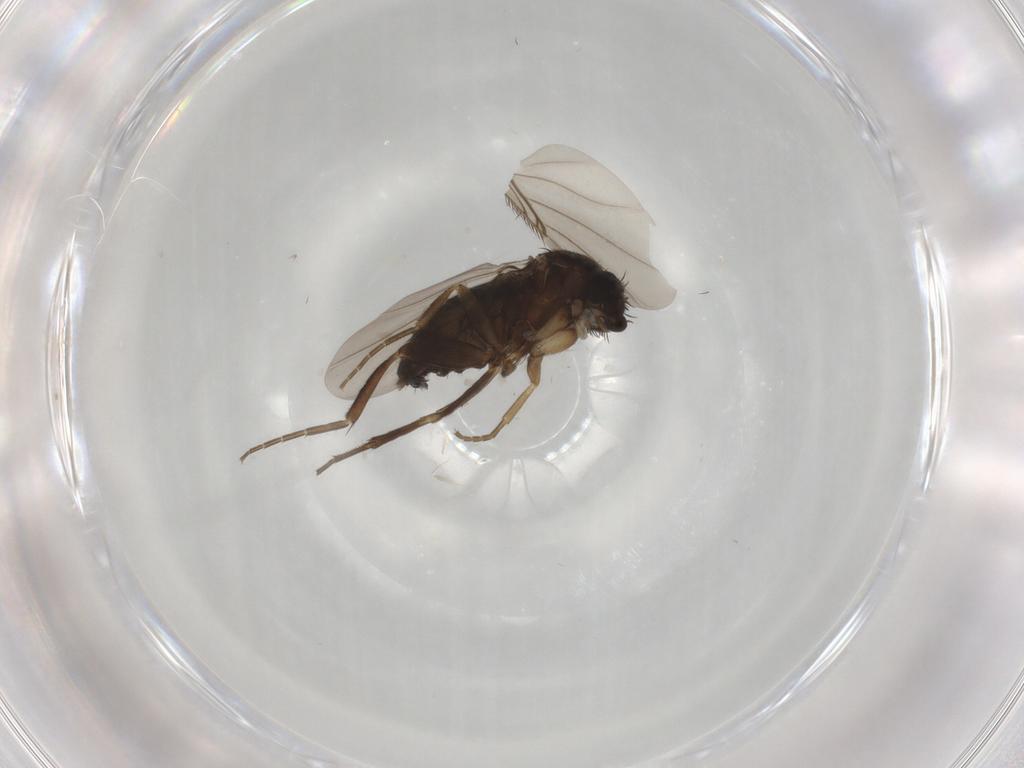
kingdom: Animalia
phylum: Arthropoda
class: Insecta
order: Diptera
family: Phoridae
